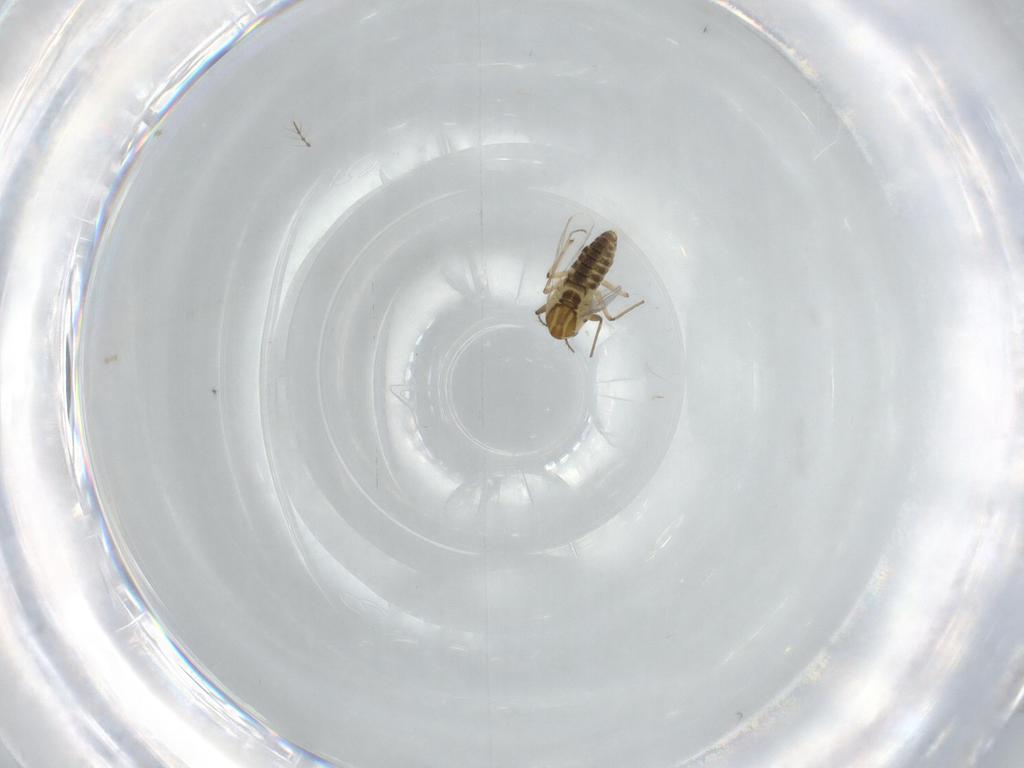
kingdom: Animalia
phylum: Arthropoda
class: Insecta
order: Diptera
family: Chironomidae
